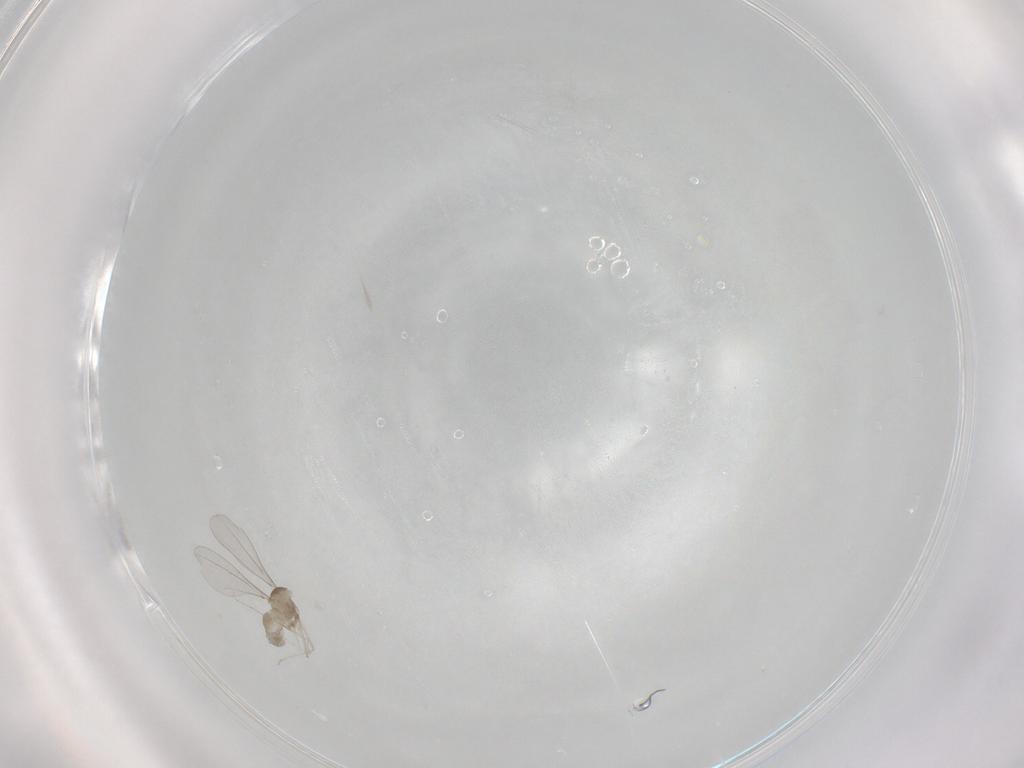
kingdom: Animalia
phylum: Arthropoda
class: Insecta
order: Diptera
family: Cecidomyiidae
